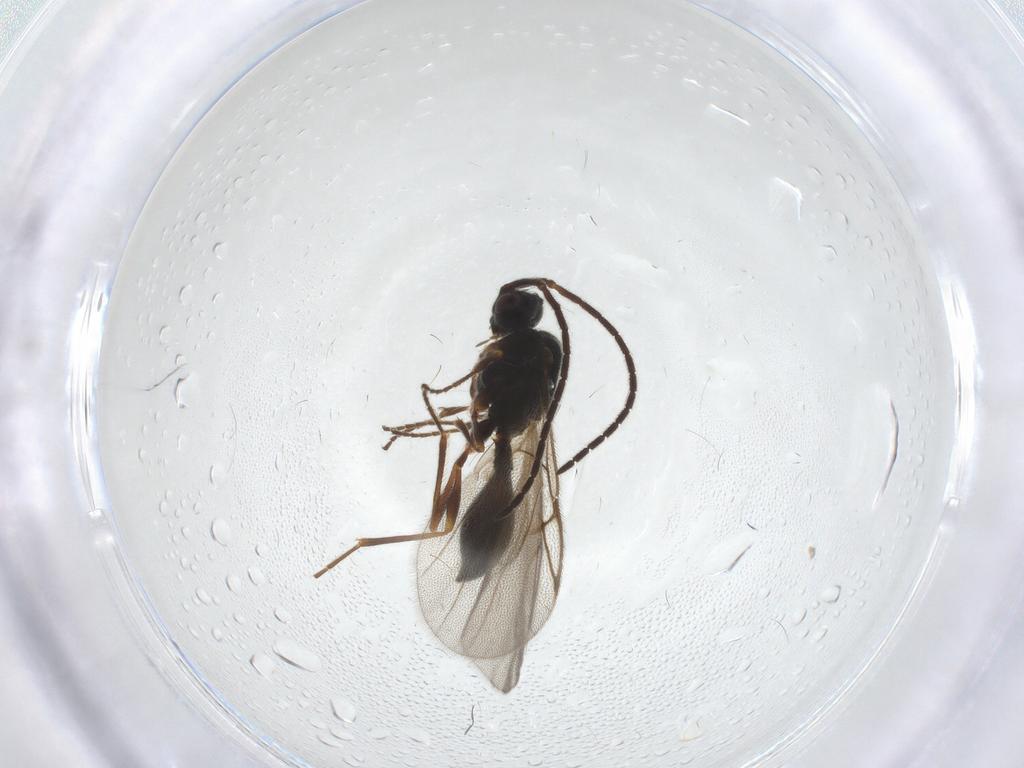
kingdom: Animalia
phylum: Arthropoda
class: Insecta
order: Hymenoptera
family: Diapriidae
